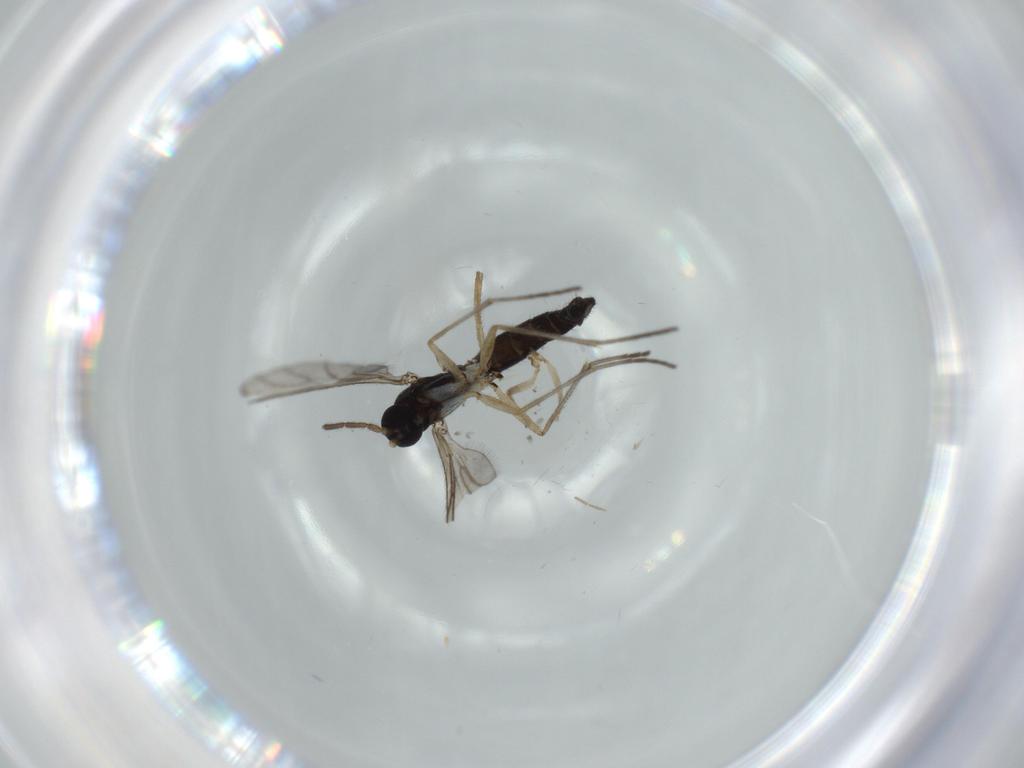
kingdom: Animalia
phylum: Arthropoda
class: Insecta
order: Diptera
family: Sciaridae
